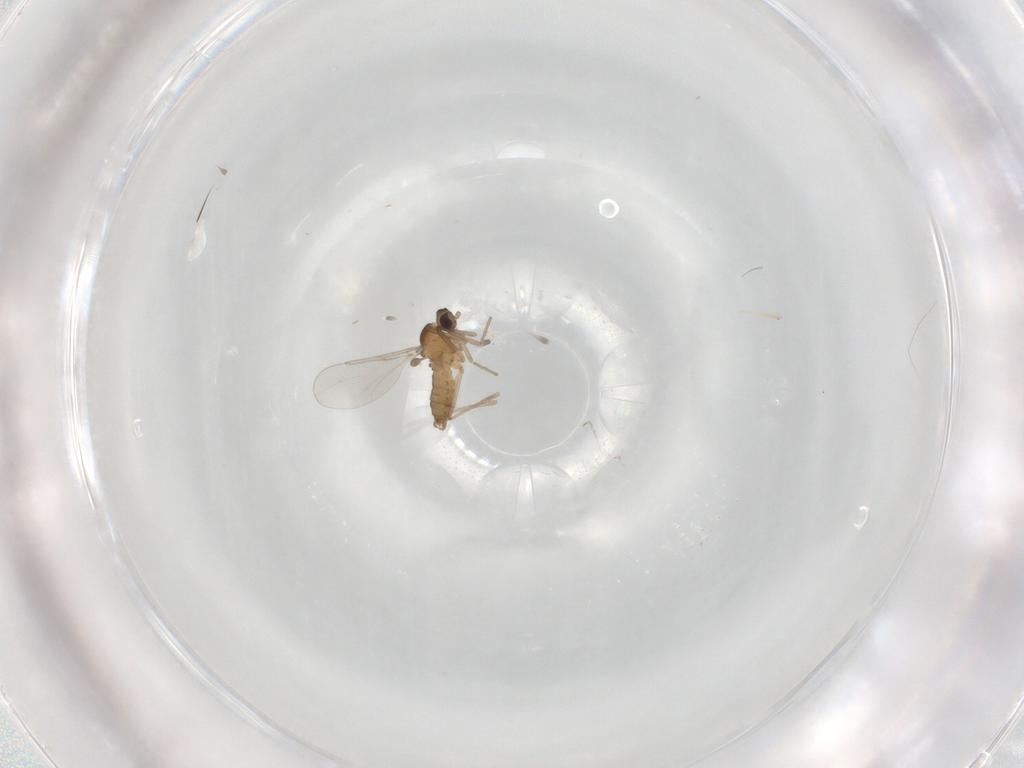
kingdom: Animalia
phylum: Arthropoda
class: Insecta
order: Diptera
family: Cecidomyiidae
